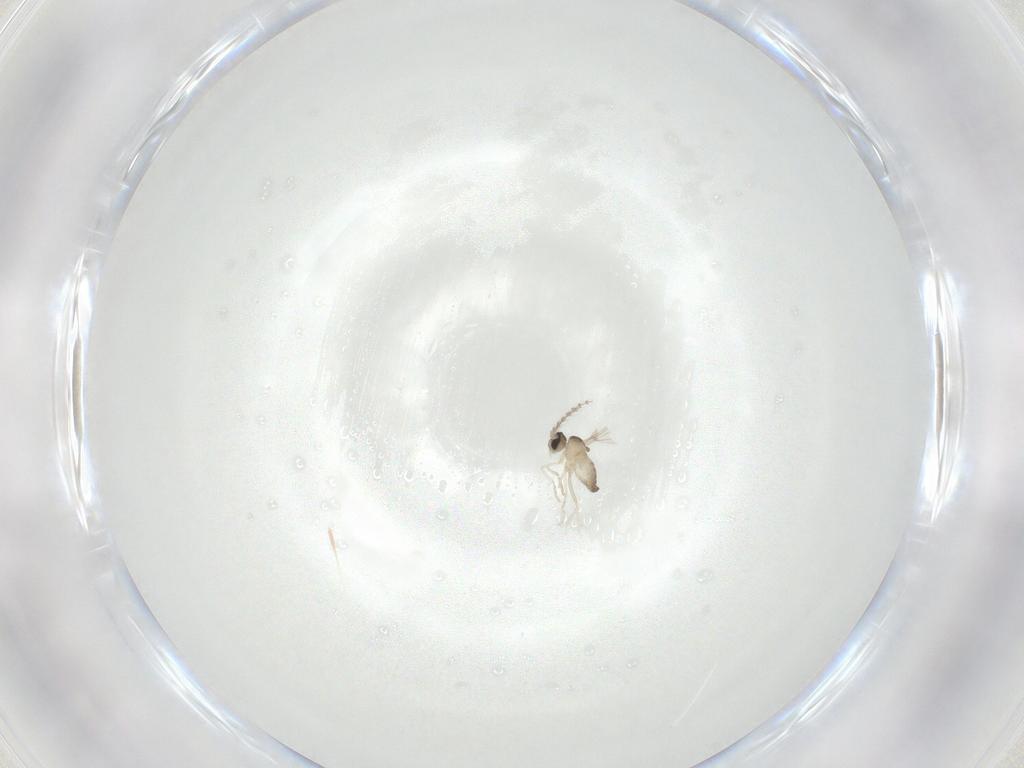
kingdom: Animalia
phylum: Arthropoda
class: Insecta
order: Diptera
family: Cecidomyiidae
